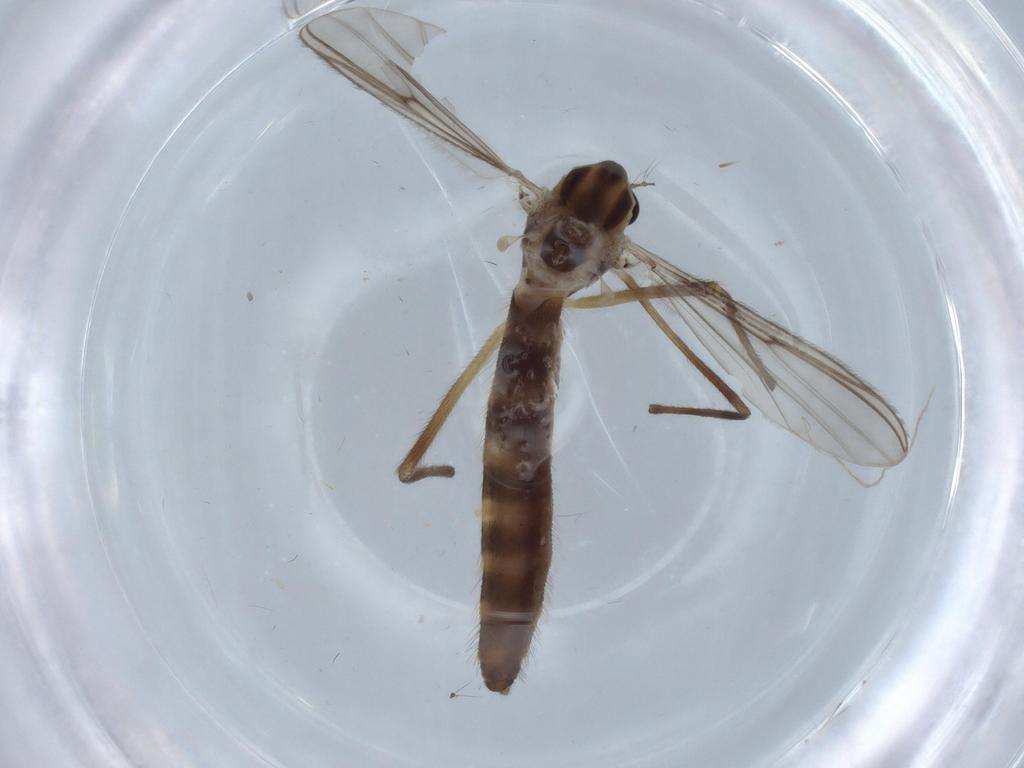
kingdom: Animalia
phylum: Arthropoda
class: Insecta
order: Diptera
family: Chironomidae
